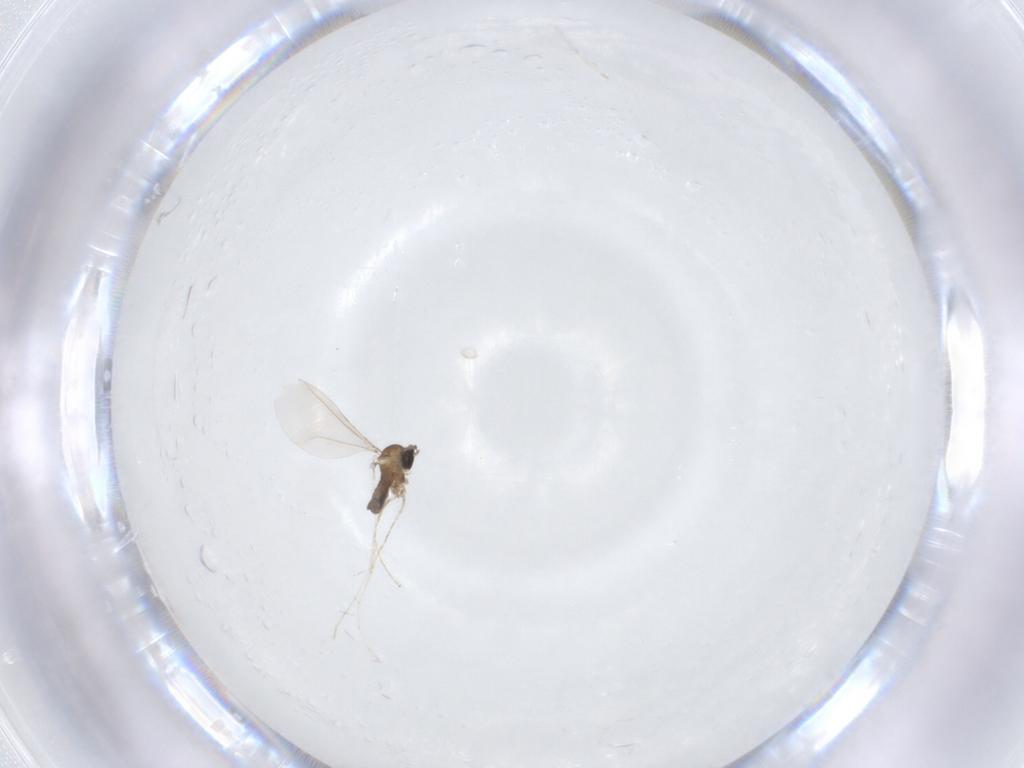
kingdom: Animalia
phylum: Arthropoda
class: Insecta
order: Diptera
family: Cecidomyiidae
